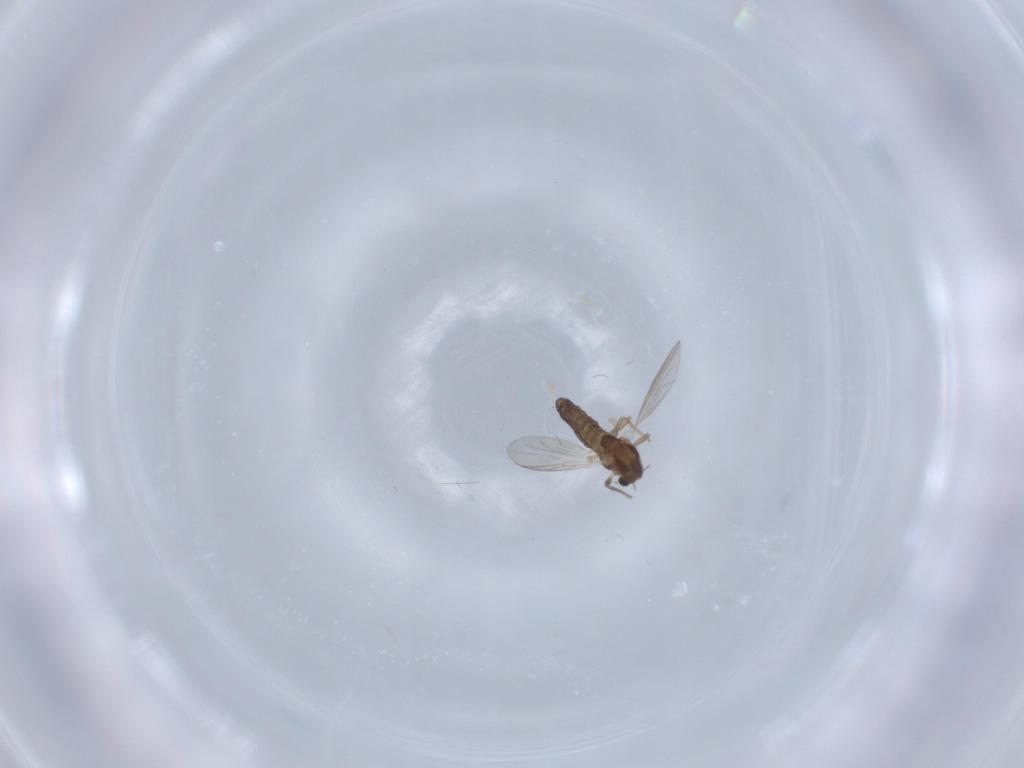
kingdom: Animalia
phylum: Arthropoda
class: Insecta
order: Diptera
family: Chironomidae
